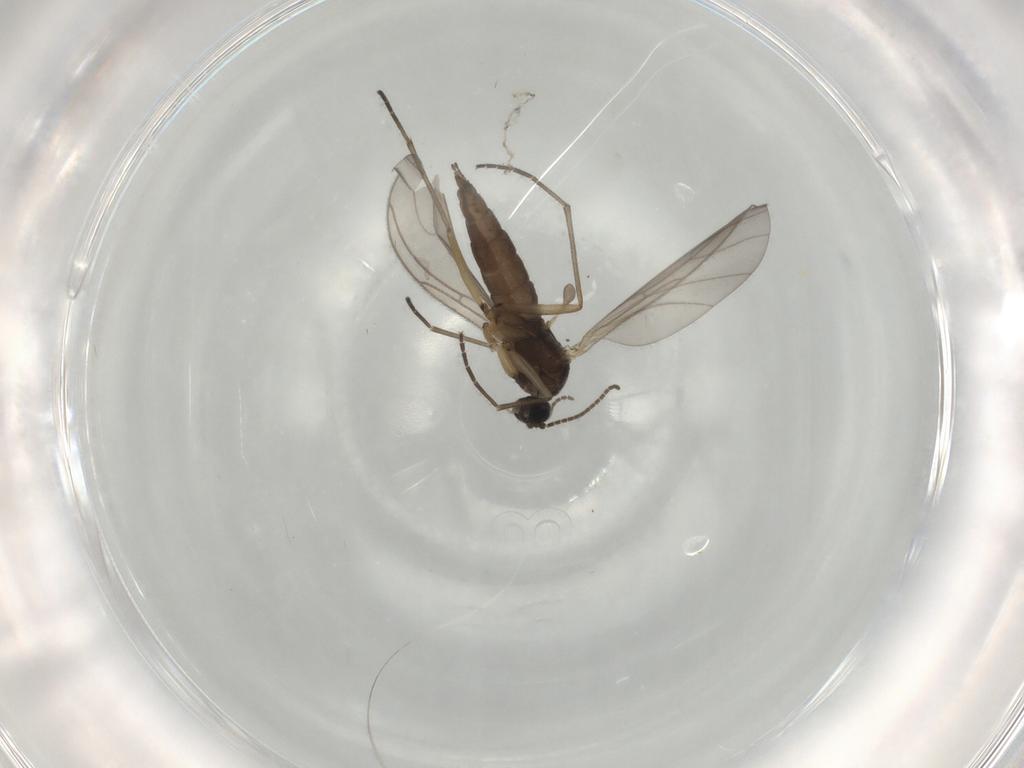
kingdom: Animalia
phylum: Arthropoda
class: Insecta
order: Diptera
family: Sciaridae
